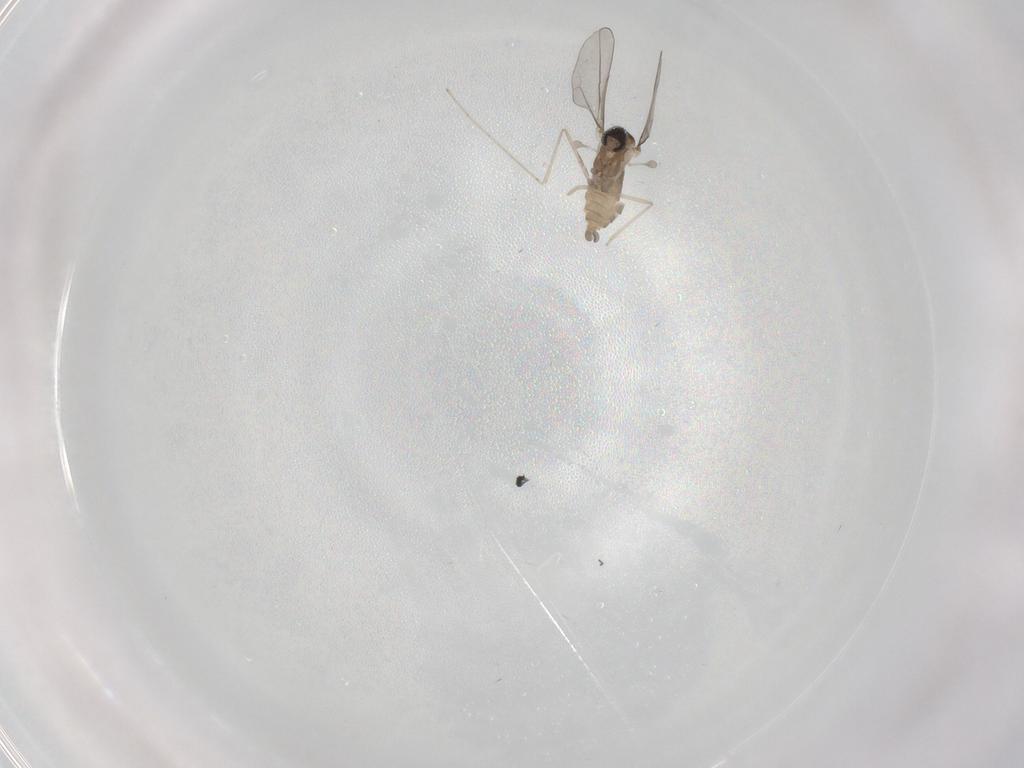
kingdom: Animalia
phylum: Arthropoda
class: Insecta
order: Diptera
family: Cecidomyiidae
